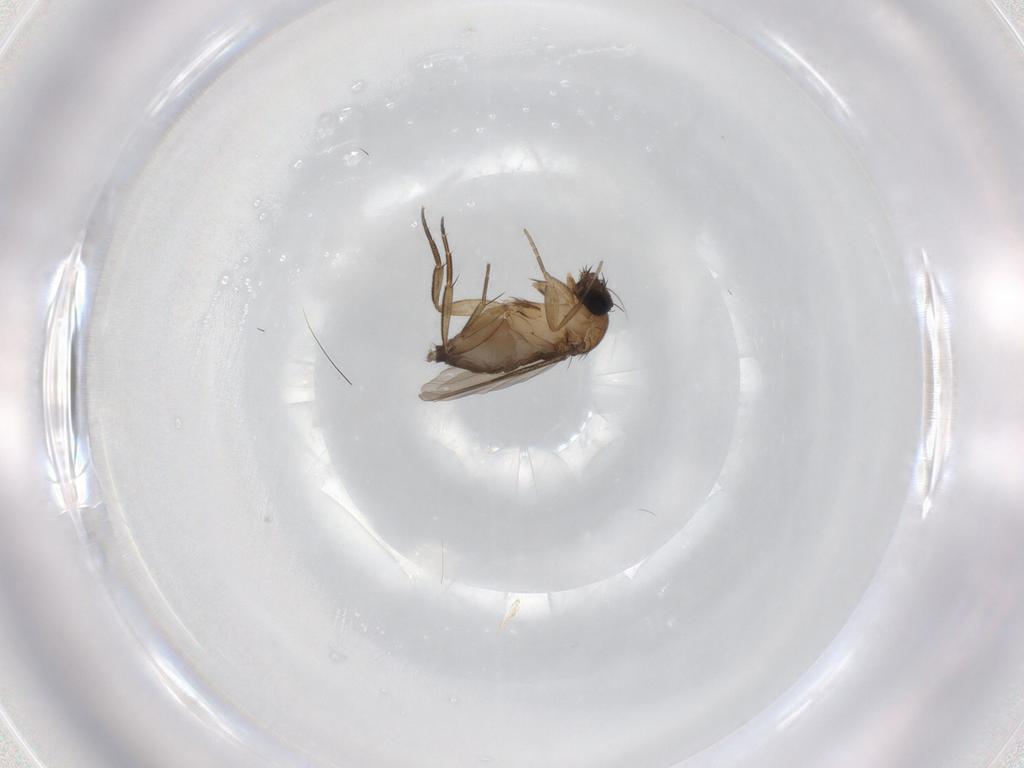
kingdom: Animalia
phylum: Arthropoda
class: Insecta
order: Diptera
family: Phoridae
